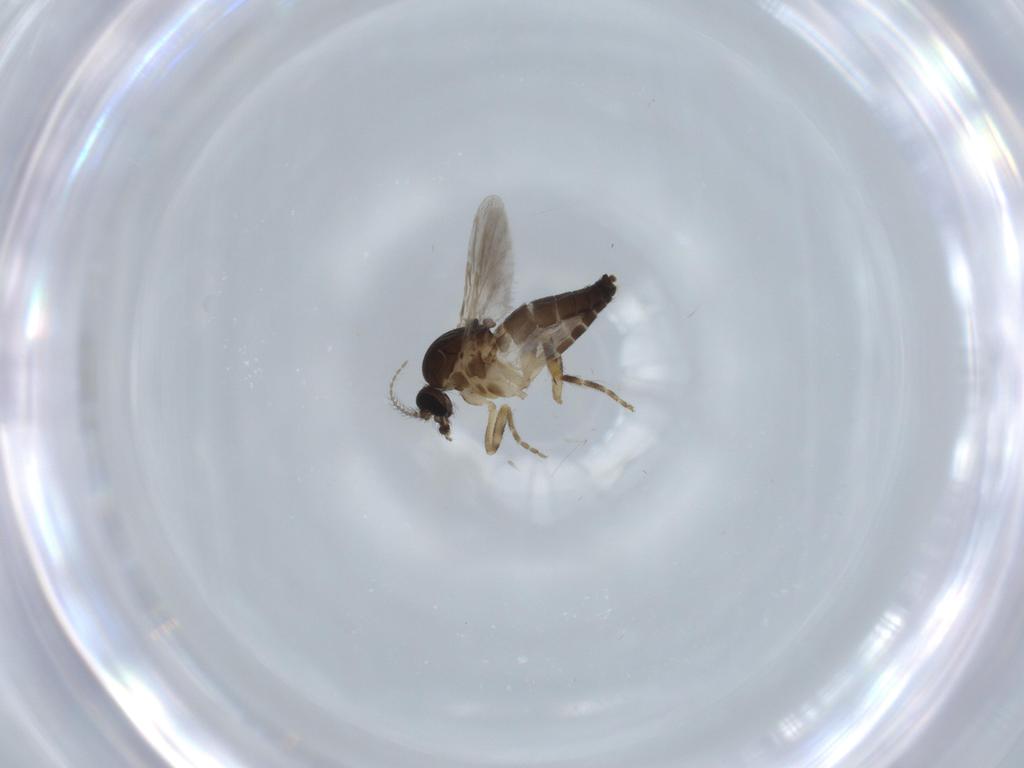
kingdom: Animalia
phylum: Arthropoda
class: Insecta
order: Diptera
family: Ceratopogonidae
